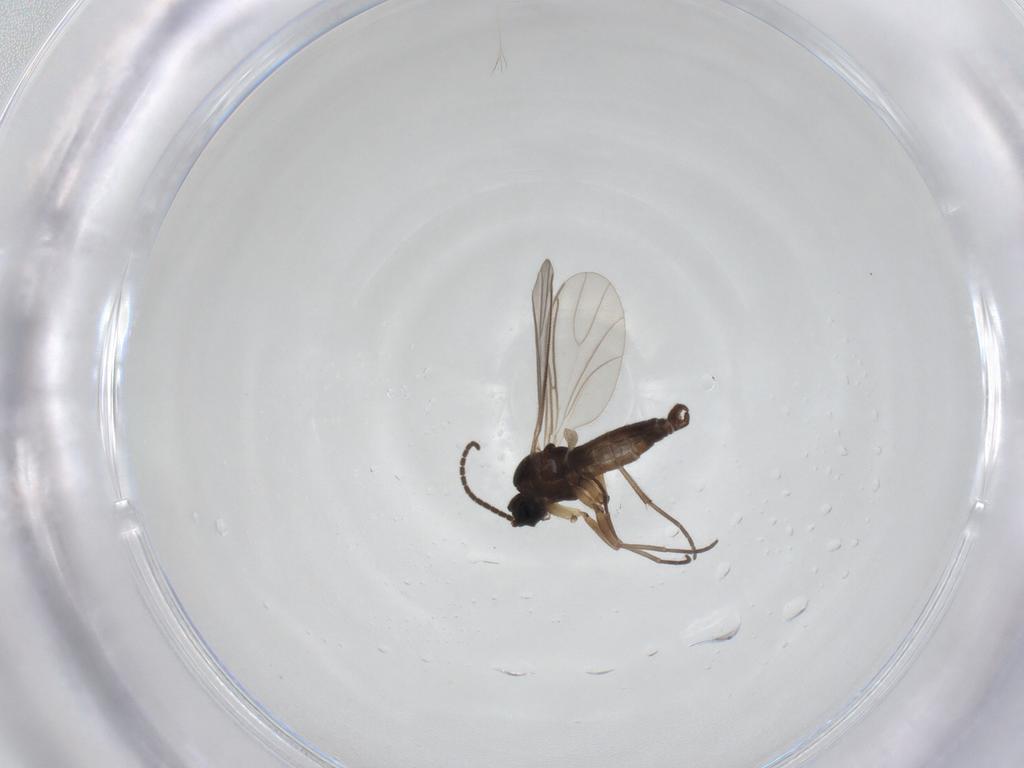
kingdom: Animalia
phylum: Arthropoda
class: Insecta
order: Diptera
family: Sciaridae
